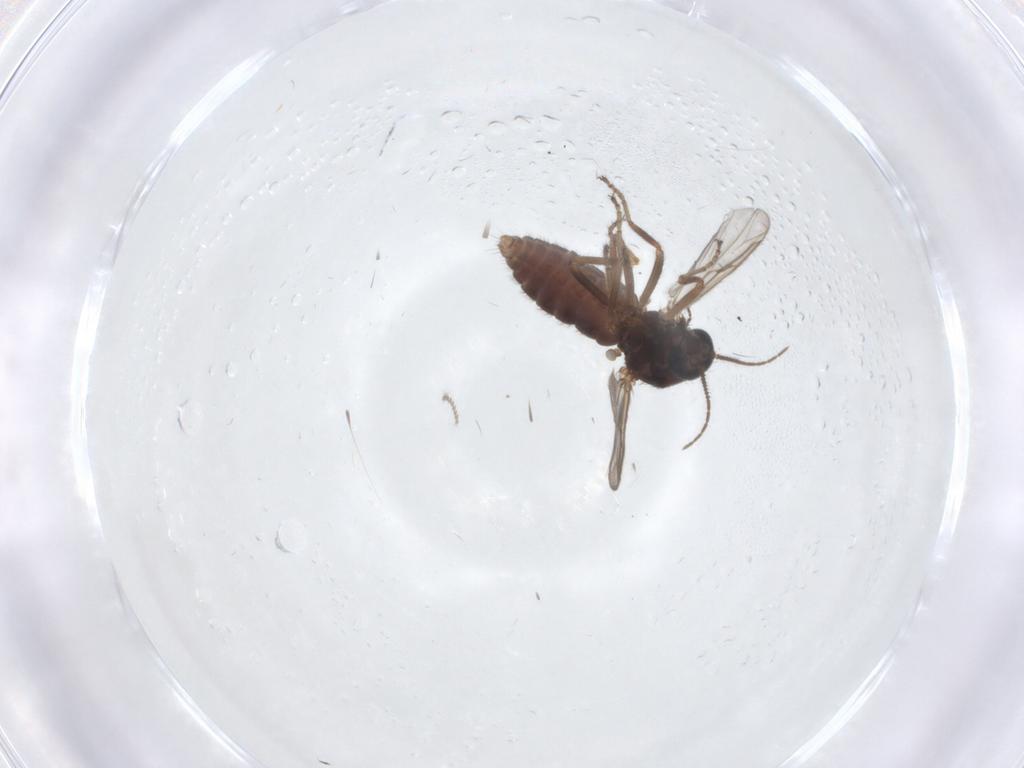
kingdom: Animalia
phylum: Arthropoda
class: Insecta
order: Diptera
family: Ceratopogonidae
